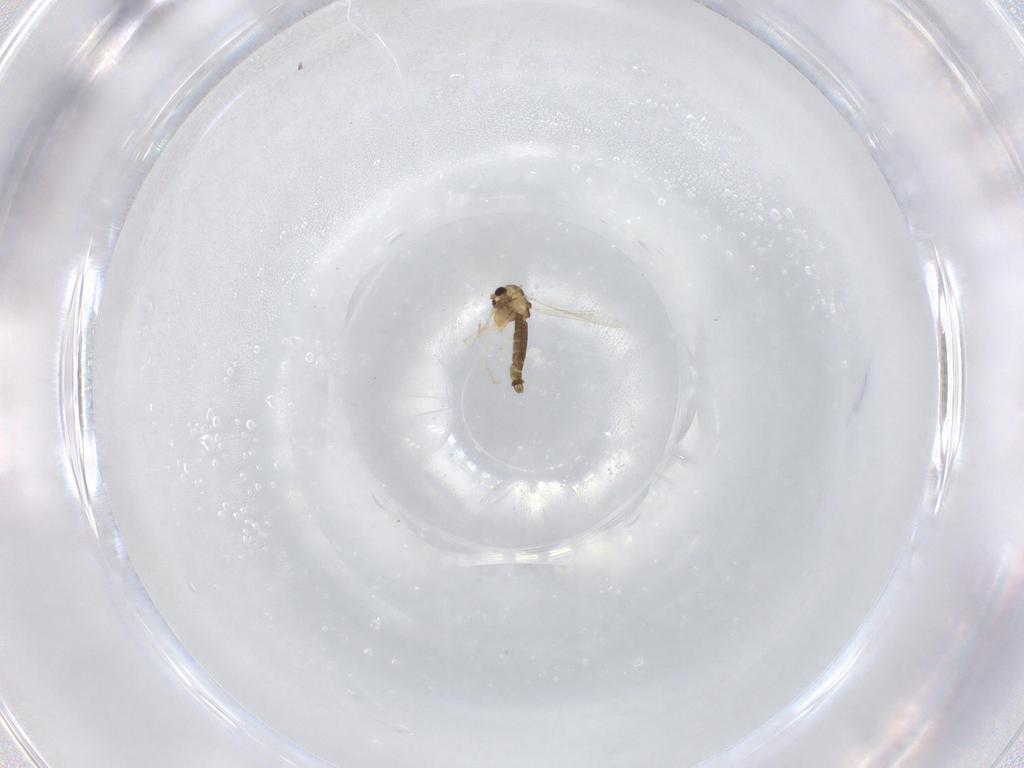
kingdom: Animalia
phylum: Arthropoda
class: Insecta
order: Diptera
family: Chironomidae
